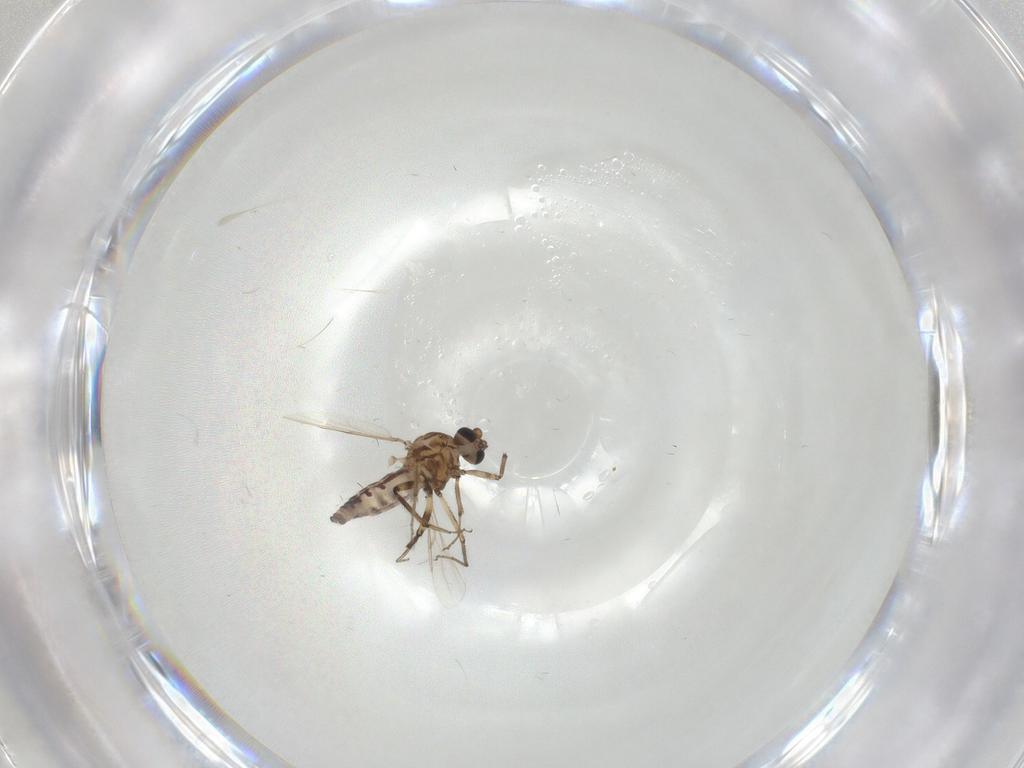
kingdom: Animalia
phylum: Arthropoda
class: Insecta
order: Diptera
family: Ceratopogonidae
